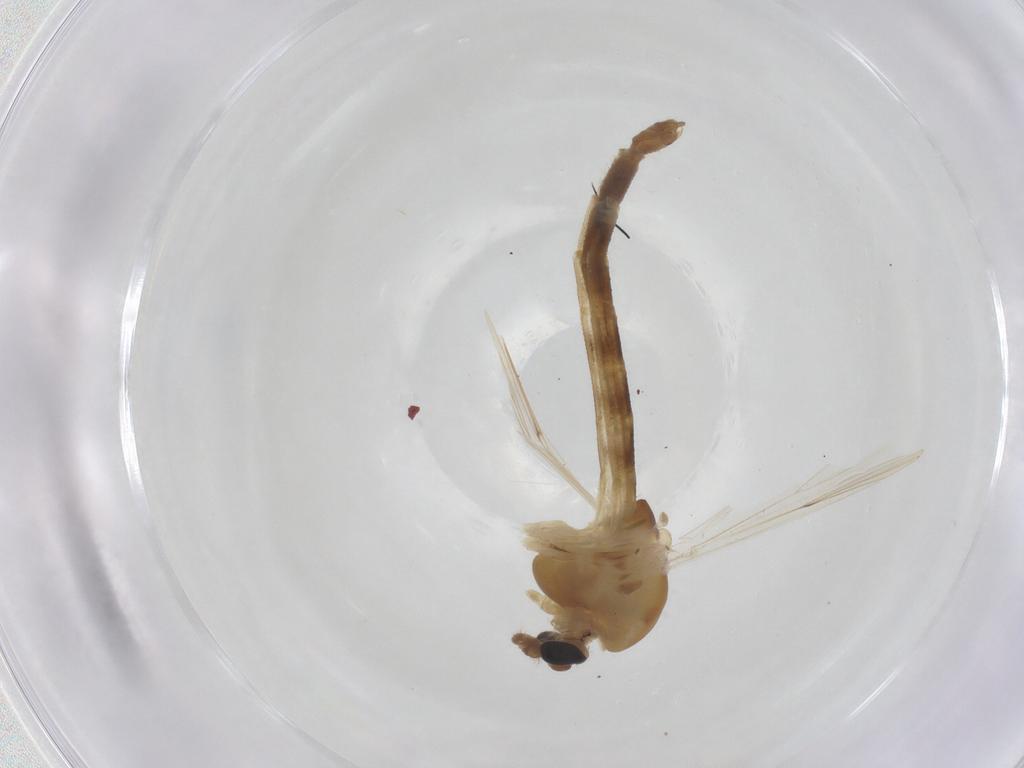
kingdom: Animalia
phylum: Arthropoda
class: Insecta
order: Diptera
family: Chironomidae
